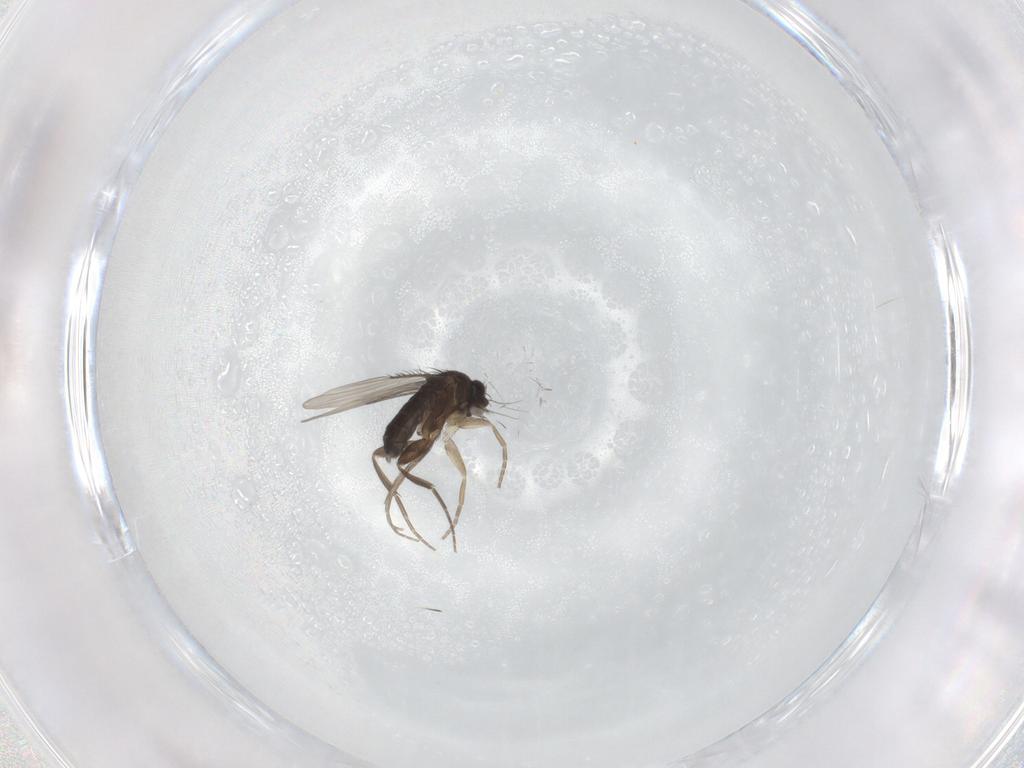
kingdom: Animalia
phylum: Arthropoda
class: Insecta
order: Diptera
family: Phoridae
